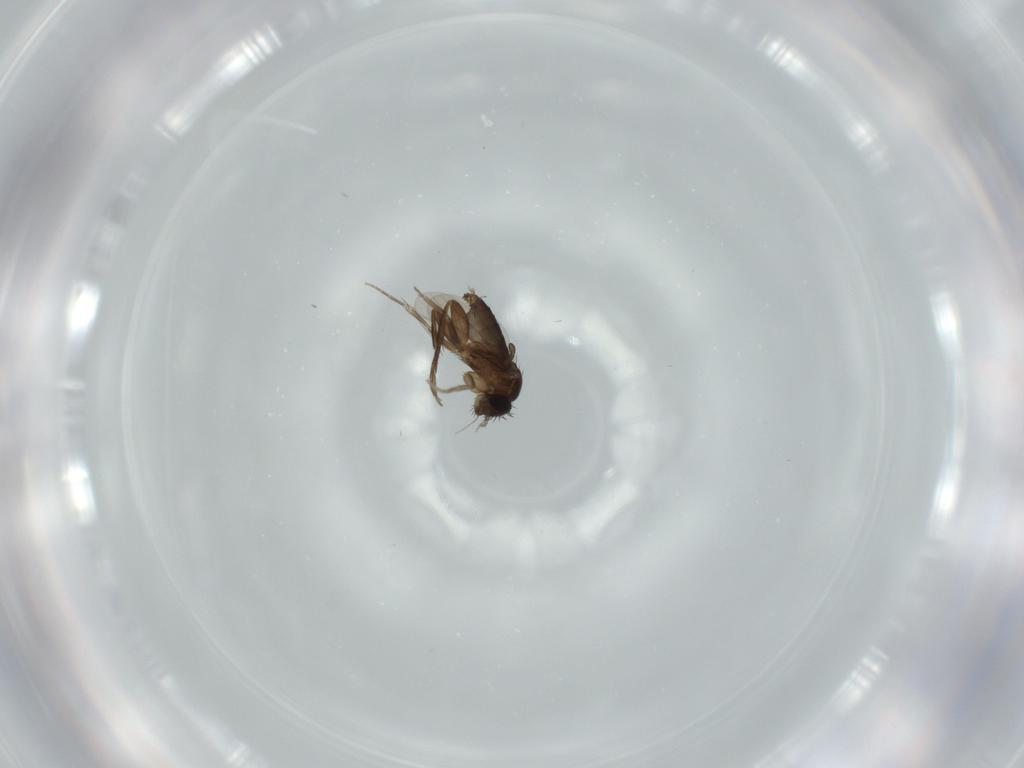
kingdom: Animalia
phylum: Arthropoda
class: Insecta
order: Diptera
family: Phoridae
